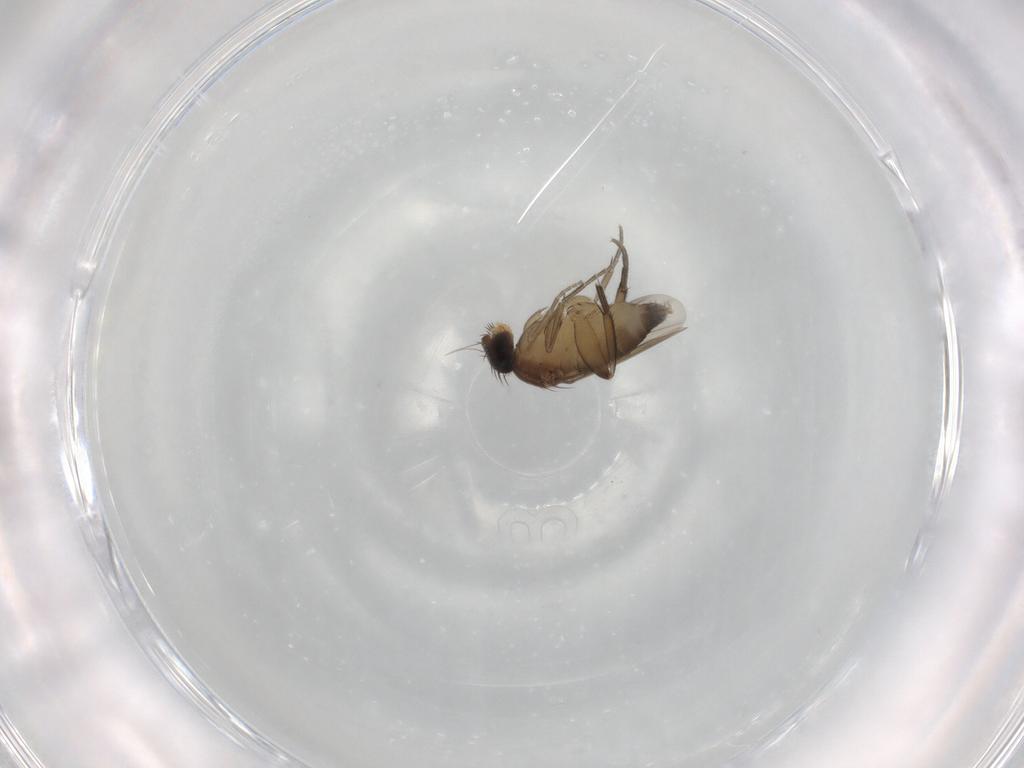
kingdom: Animalia
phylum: Arthropoda
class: Insecta
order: Diptera
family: Phoridae
